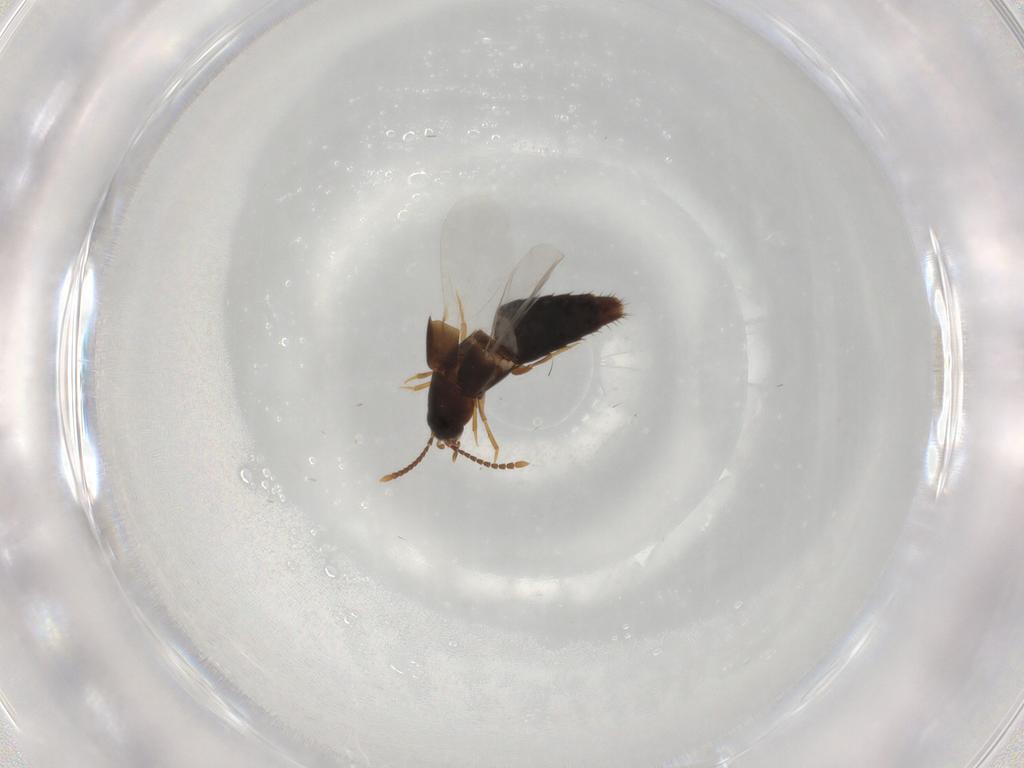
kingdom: Animalia
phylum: Arthropoda
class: Insecta
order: Coleoptera
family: Staphylinidae
